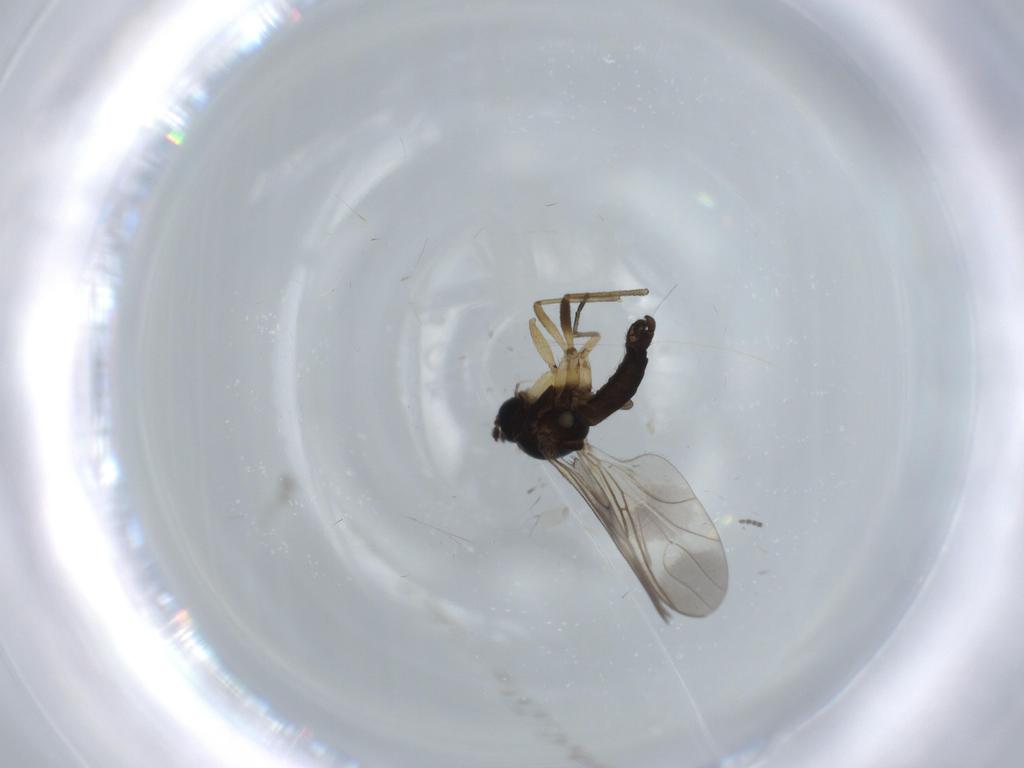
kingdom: Animalia
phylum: Arthropoda
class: Insecta
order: Diptera
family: Sciaridae
